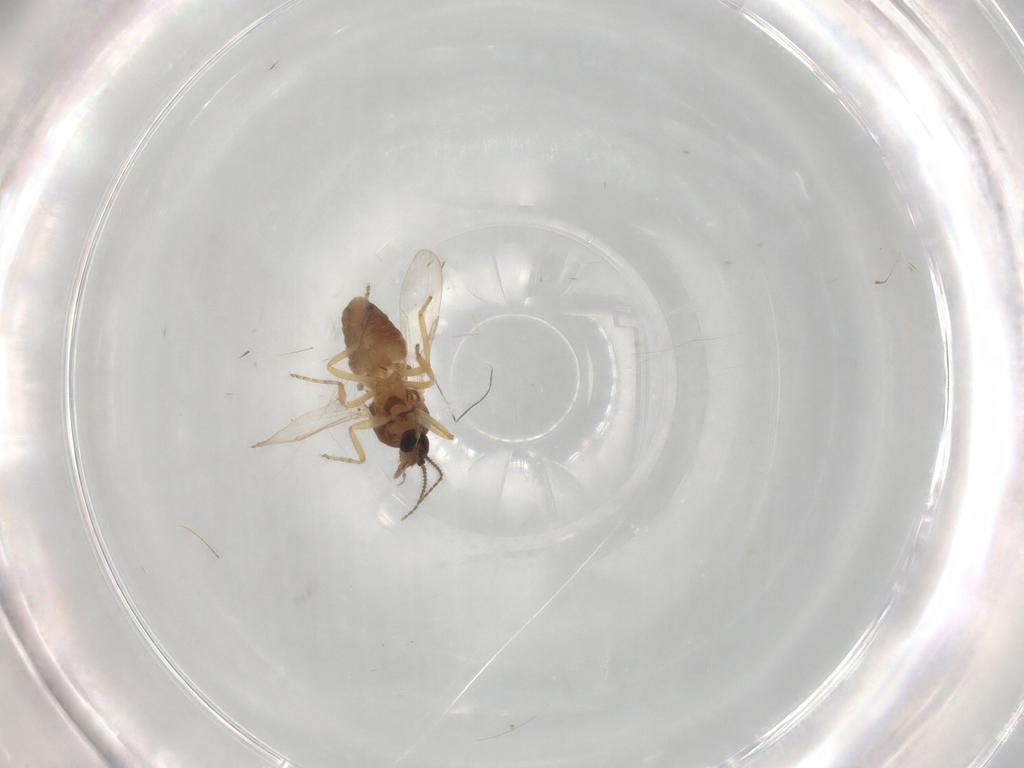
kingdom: Animalia
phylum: Arthropoda
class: Insecta
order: Diptera
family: Ceratopogonidae
